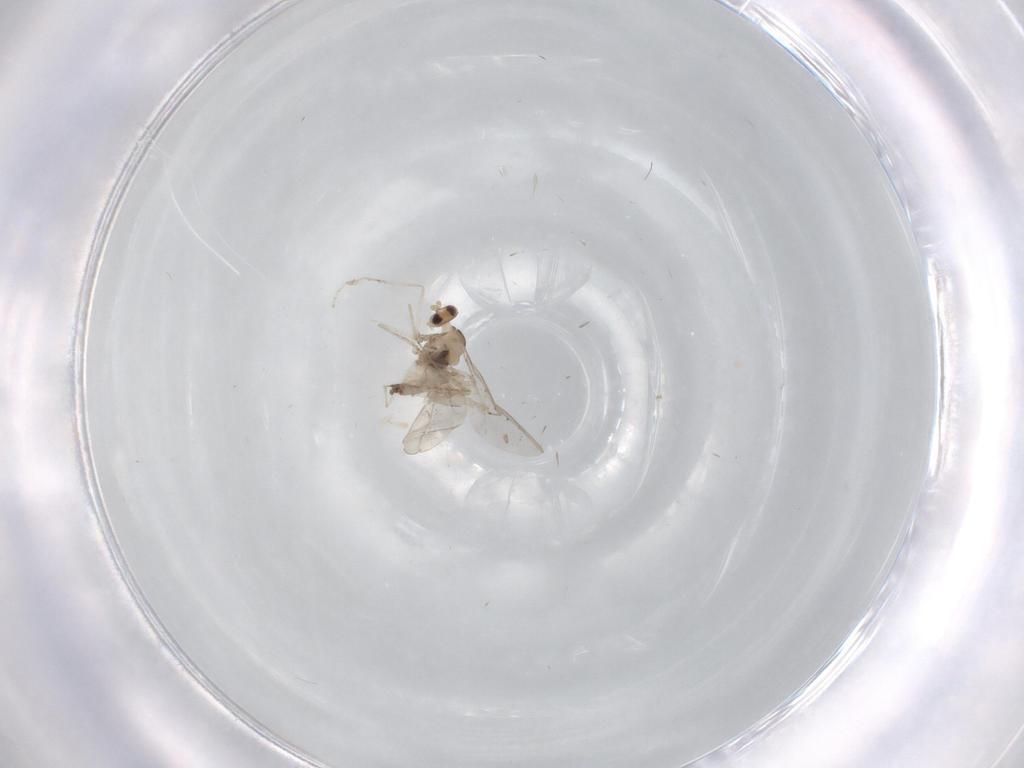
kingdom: Animalia
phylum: Arthropoda
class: Insecta
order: Diptera
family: Cecidomyiidae
